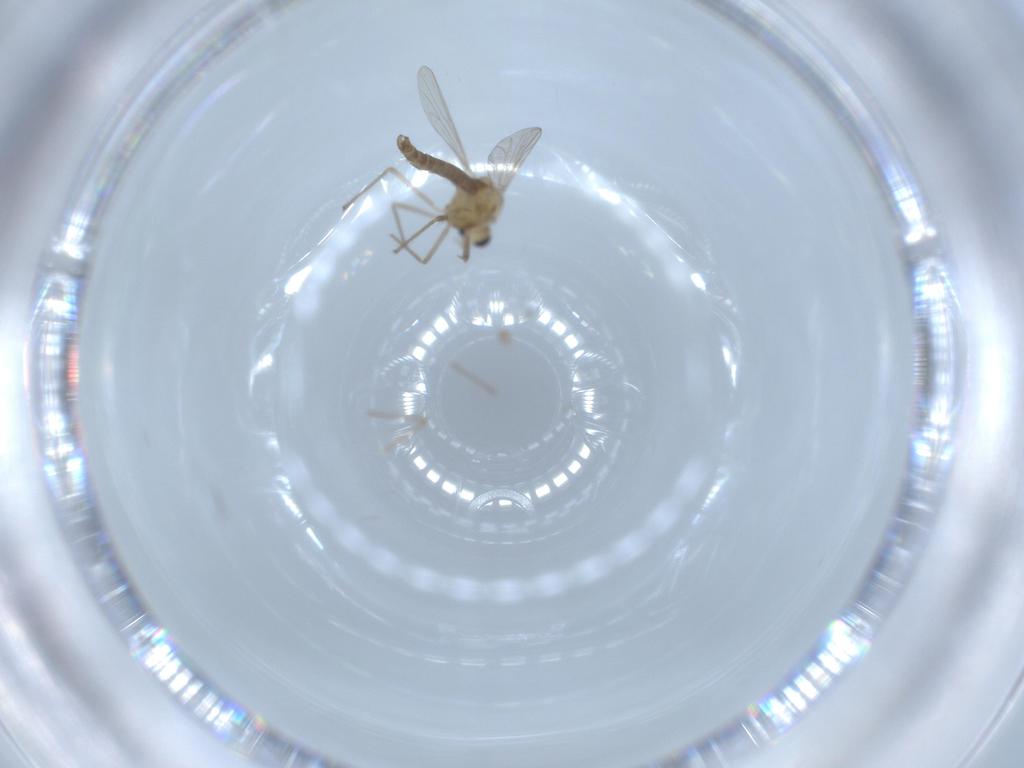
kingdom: Animalia
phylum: Arthropoda
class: Insecta
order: Diptera
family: Chironomidae
